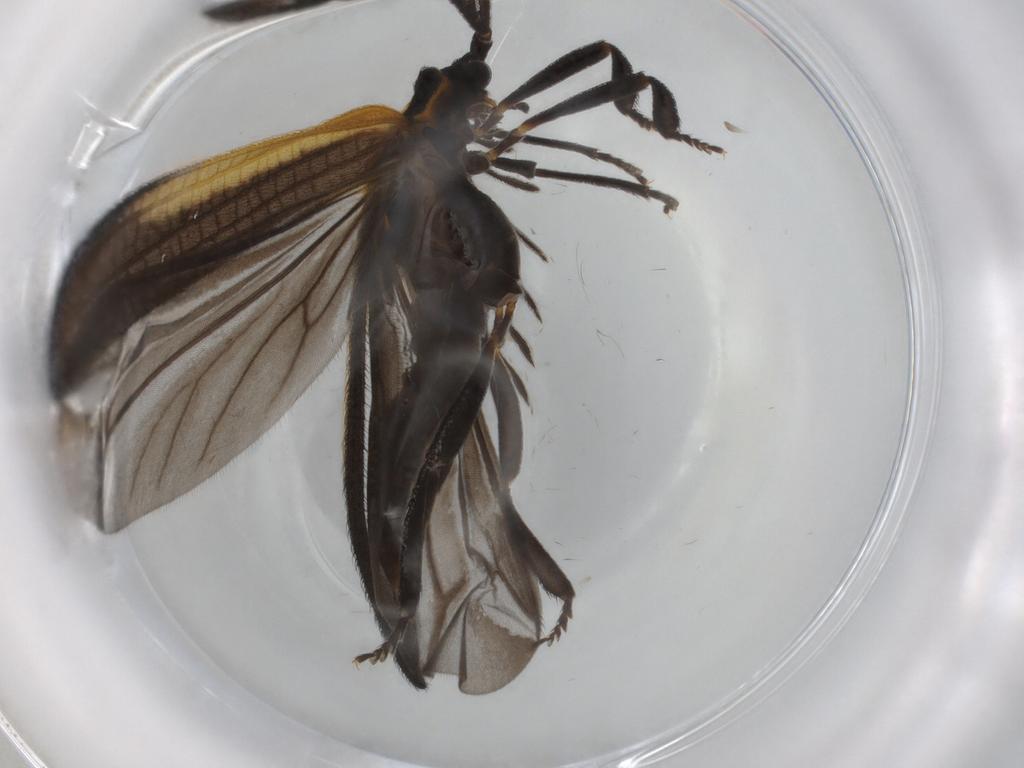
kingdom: Animalia
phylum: Arthropoda
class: Insecta
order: Coleoptera
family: Lycidae
